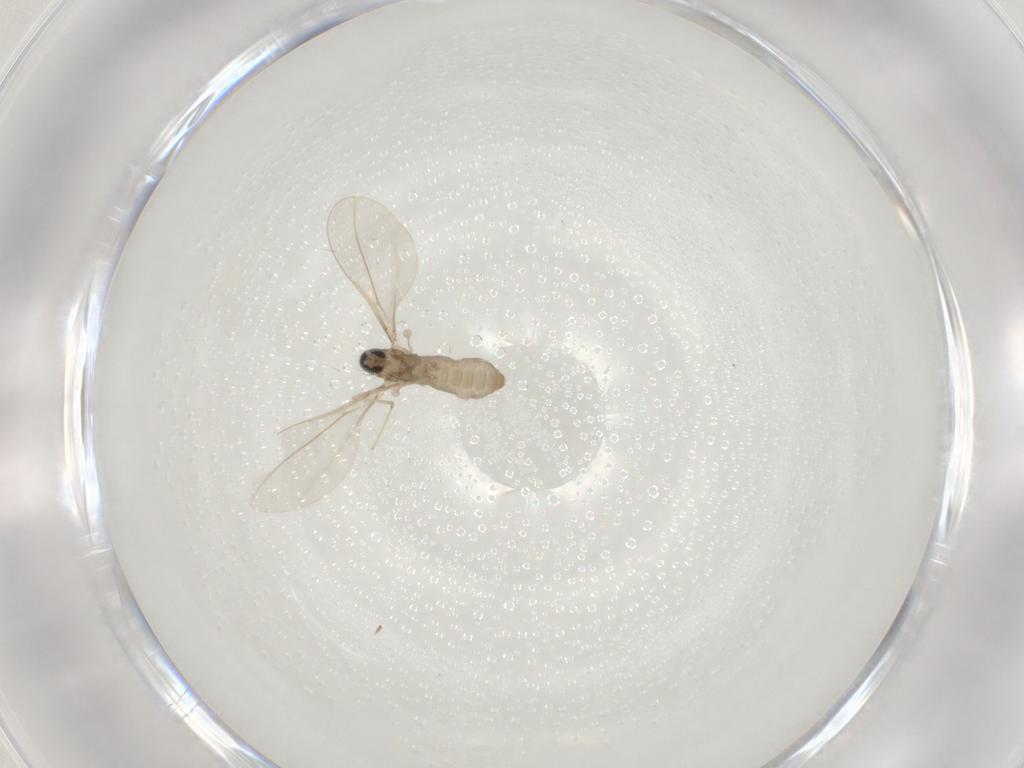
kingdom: Animalia
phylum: Arthropoda
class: Insecta
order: Diptera
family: Cecidomyiidae
